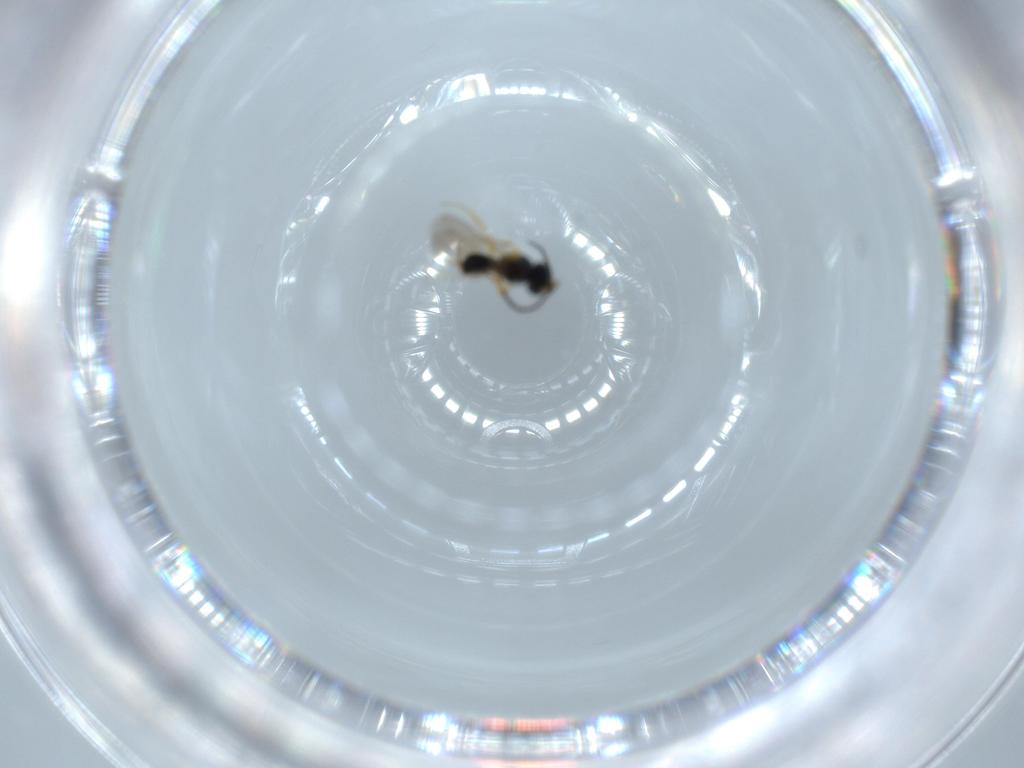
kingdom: Animalia
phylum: Arthropoda
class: Insecta
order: Hymenoptera
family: Scelionidae
